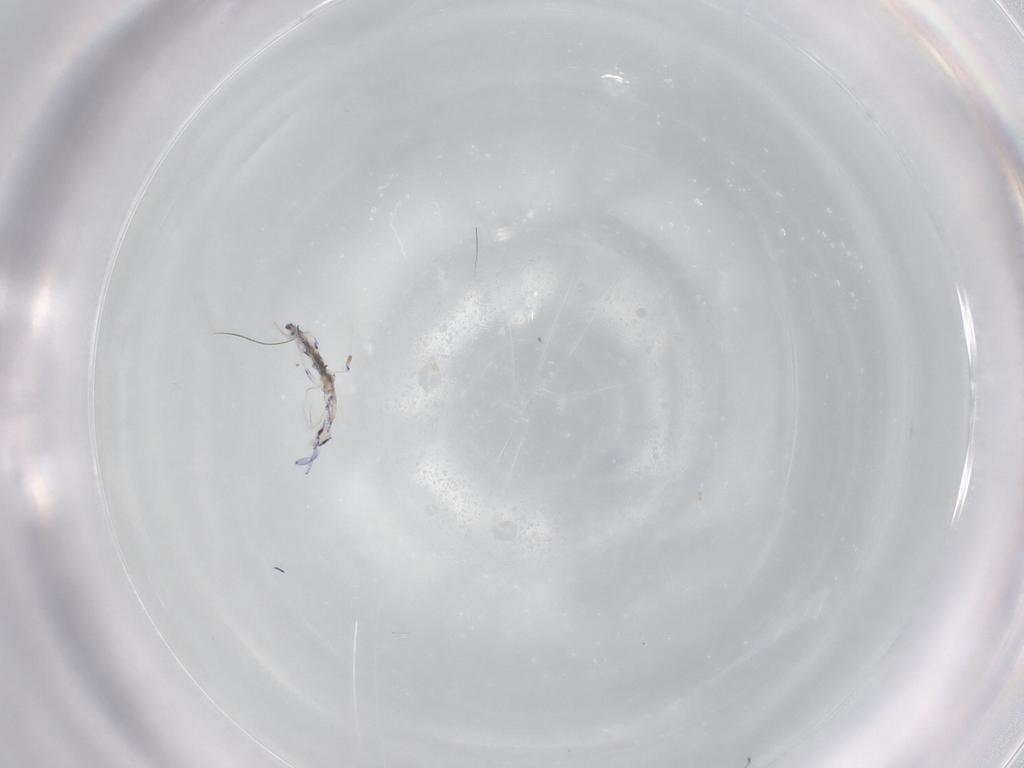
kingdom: Animalia
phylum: Arthropoda
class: Collembola
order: Entomobryomorpha
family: Entomobryidae
